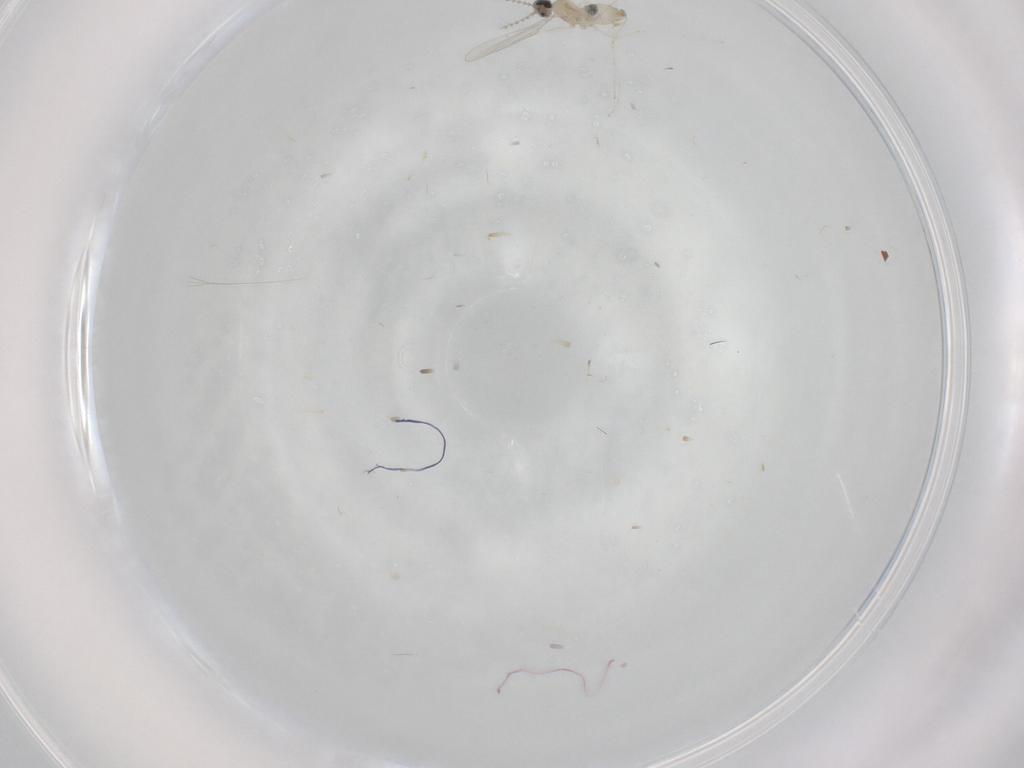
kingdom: Animalia
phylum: Arthropoda
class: Insecta
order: Diptera
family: Cecidomyiidae
